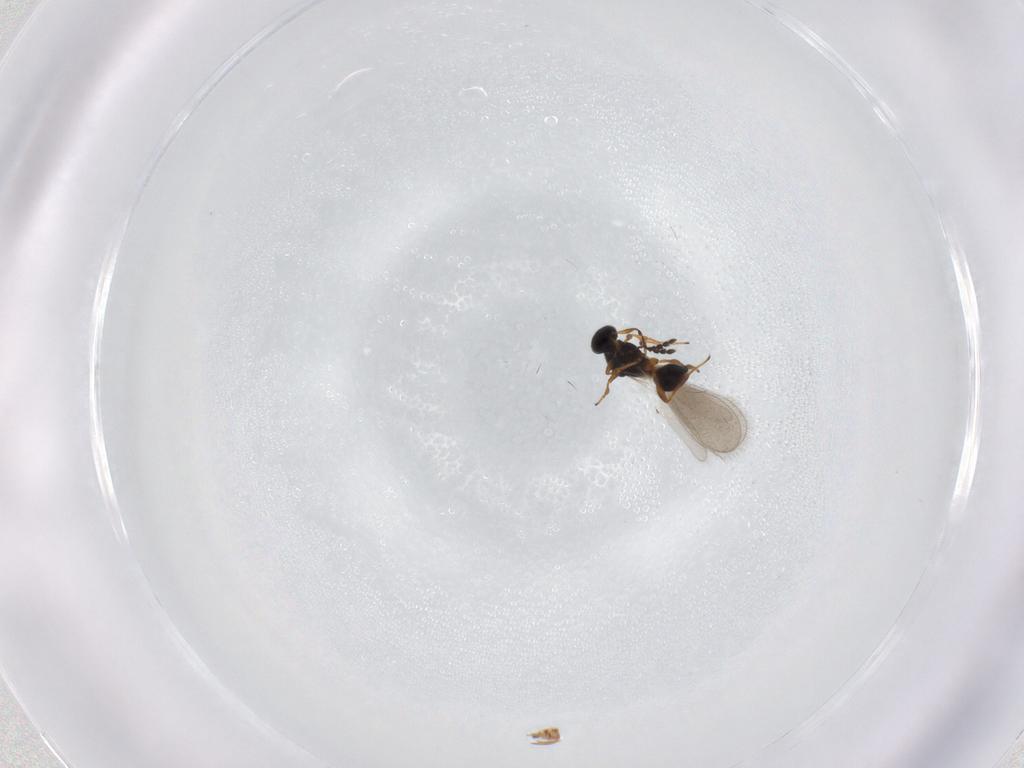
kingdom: Animalia
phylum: Arthropoda
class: Insecta
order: Hymenoptera
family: Platygastridae
